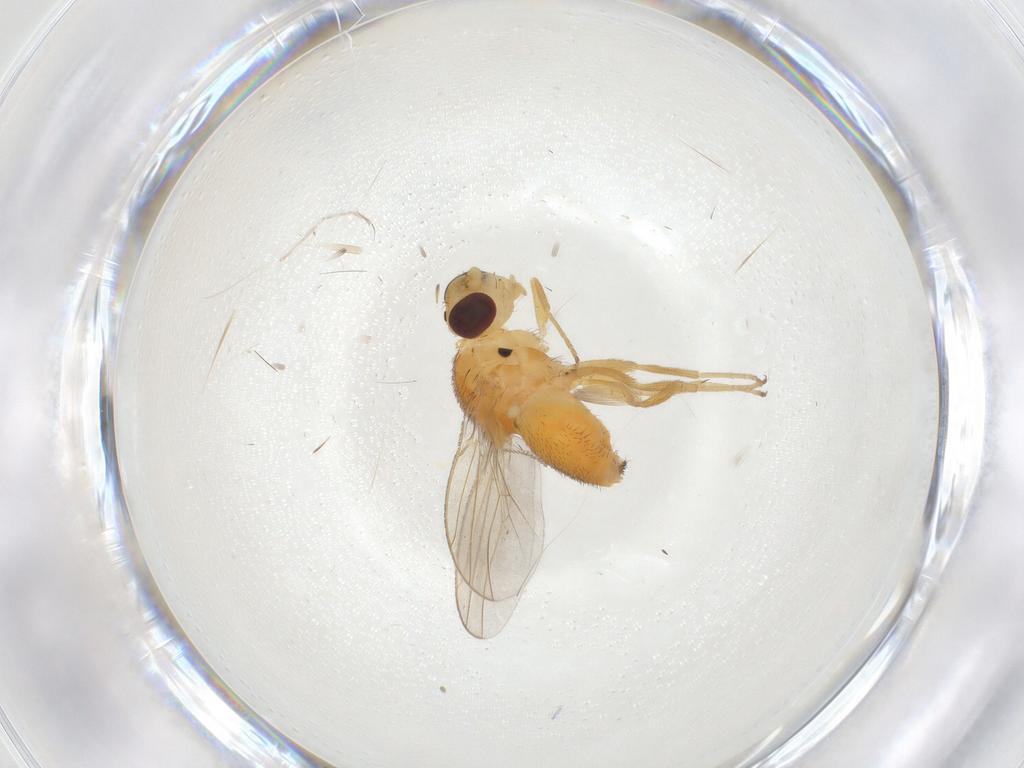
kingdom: Animalia
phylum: Arthropoda
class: Insecta
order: Diptera
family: Chloropidae
